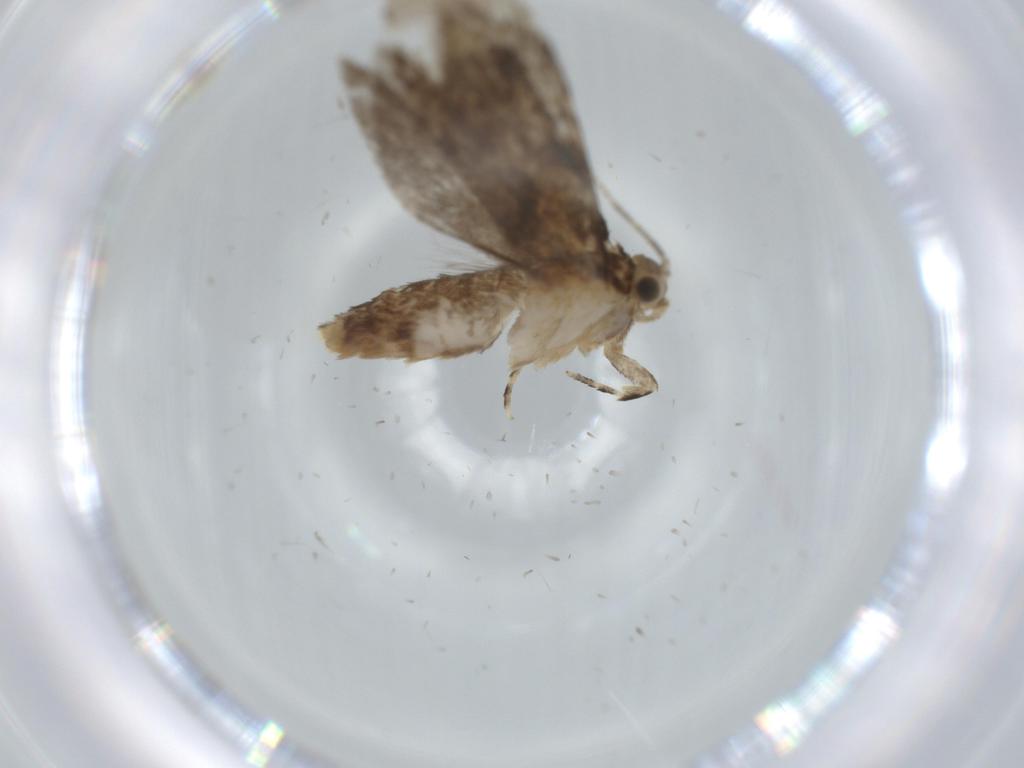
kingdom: Animalia
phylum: Arthropoda
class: Insecta
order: Lepidoptera
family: Tineidae
